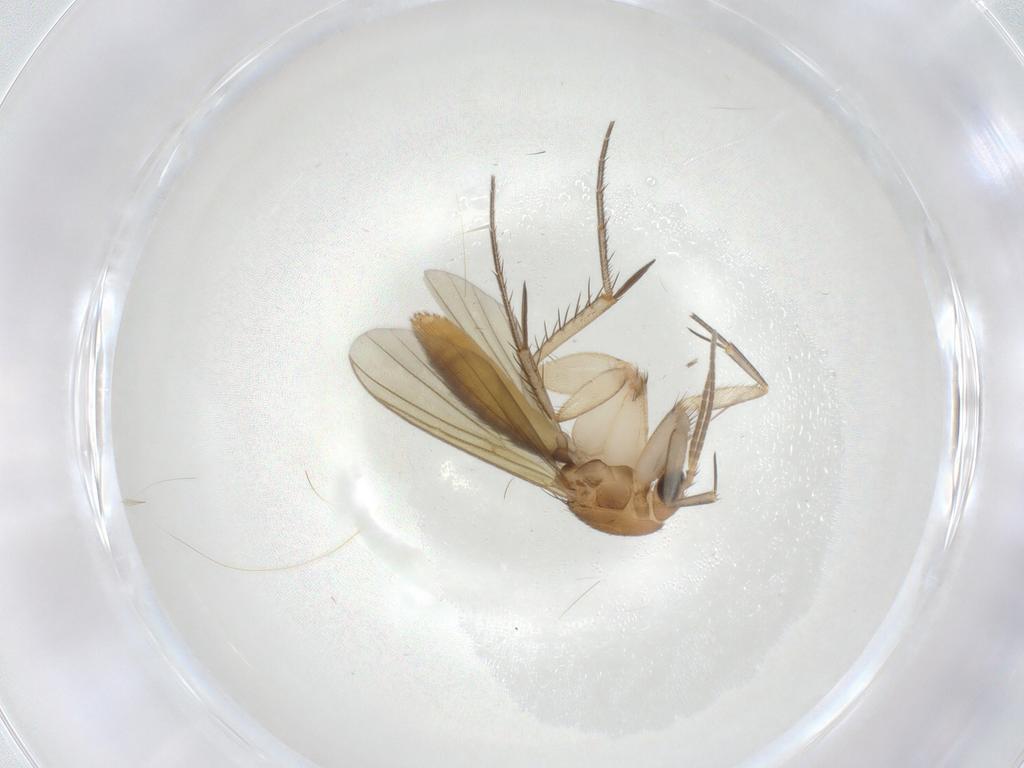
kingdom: Animalia
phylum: Arthropoda
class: Insecta
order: Diptera
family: Mycetophilidae
